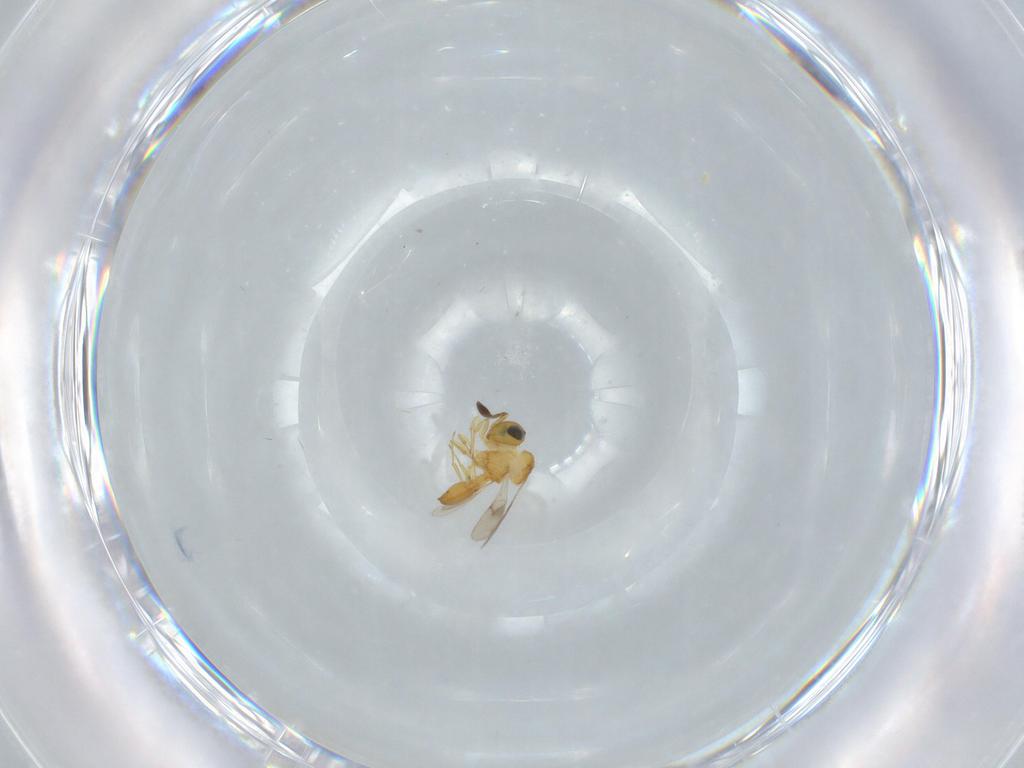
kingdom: Animalia
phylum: Arthropoda
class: Insecta
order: Hymenoptera
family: Scelionidae
